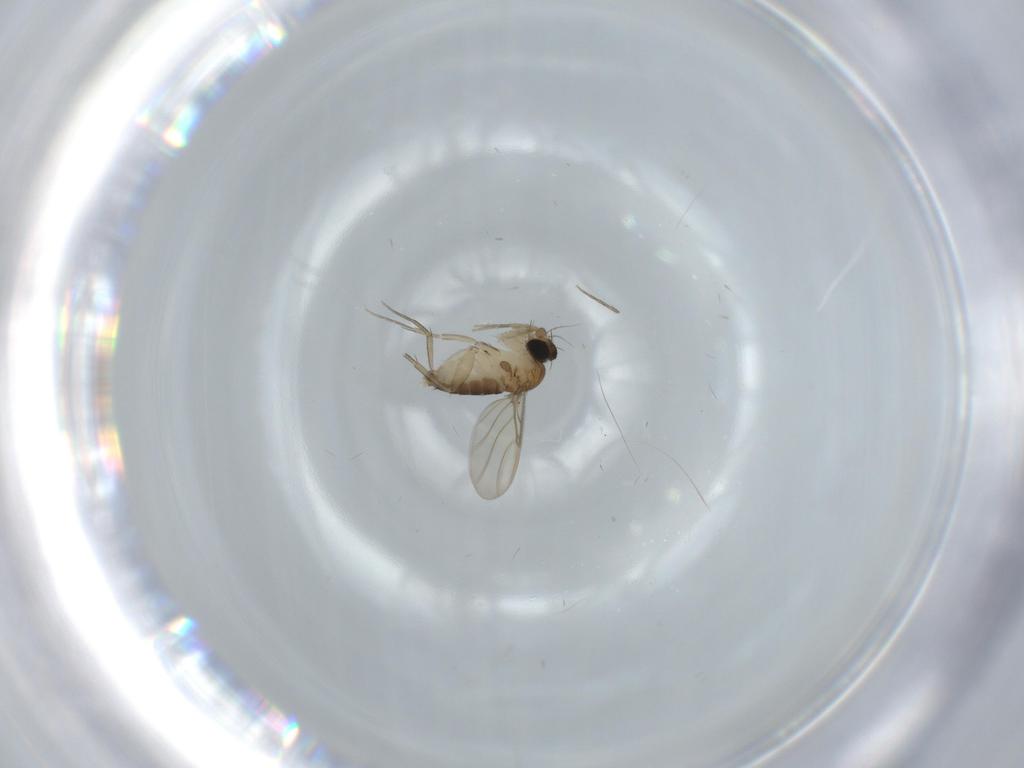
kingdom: Animalia
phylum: Arthropoda
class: Insecta
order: Diptera
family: Phoridae
